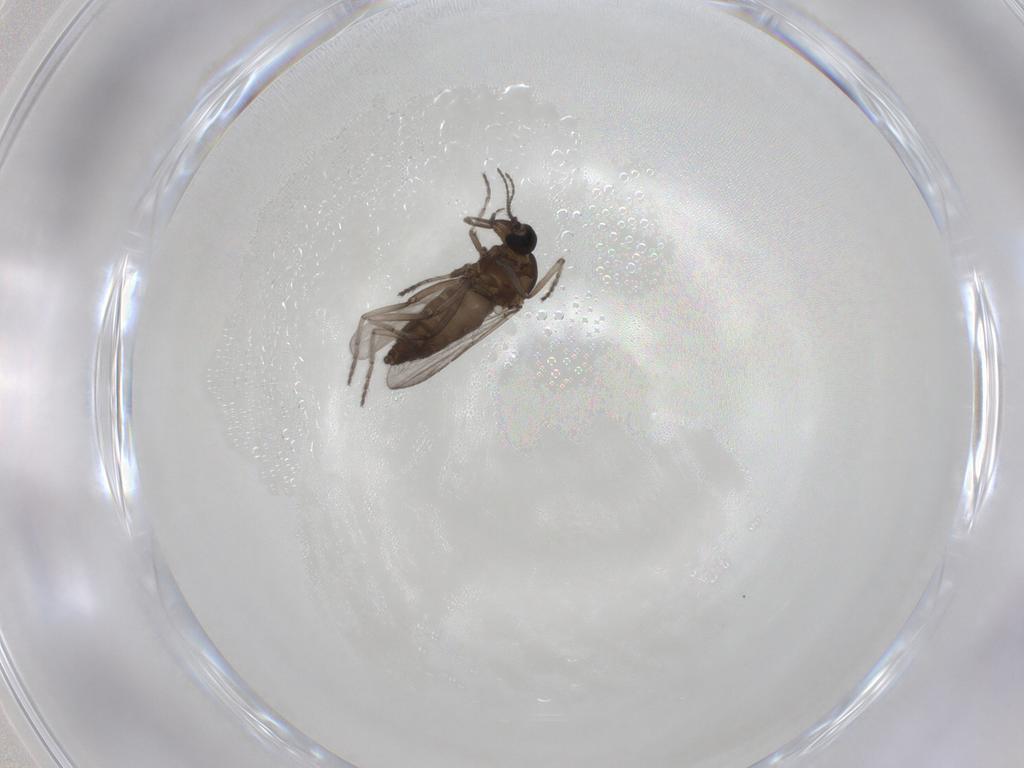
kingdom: Animalia
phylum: Arthropoda
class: Insecta
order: Diptera
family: Ceratopogonidae
